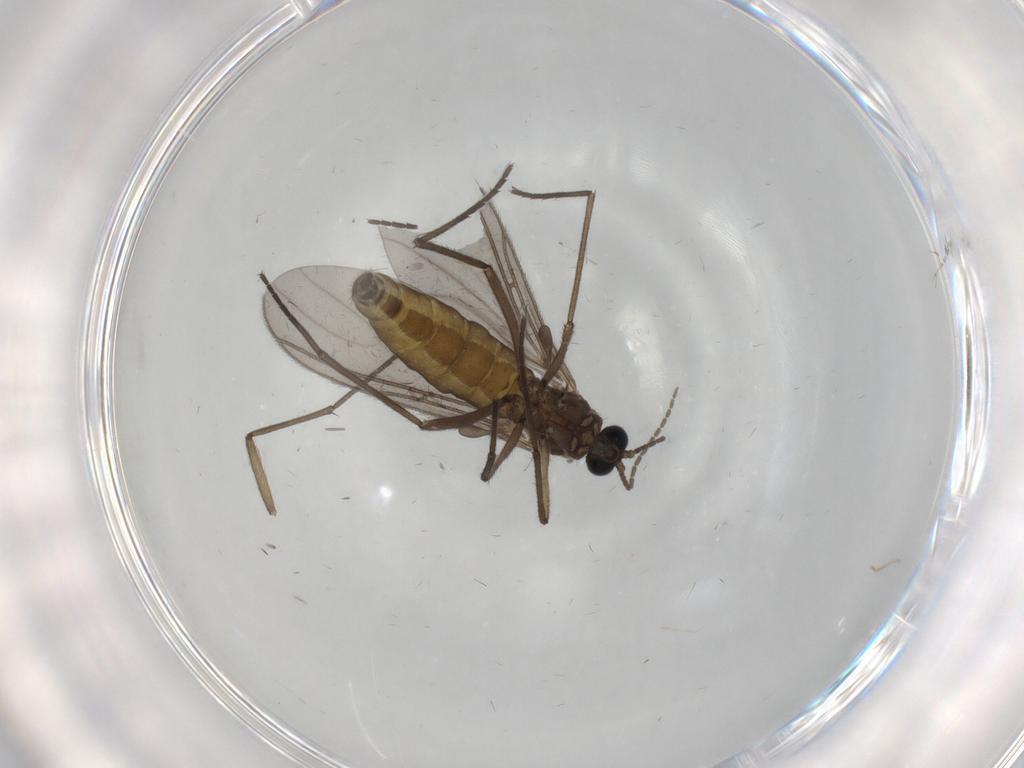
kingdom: Animalia
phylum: Arthropoda
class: Insecta
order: Diptera
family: Sciaridae
